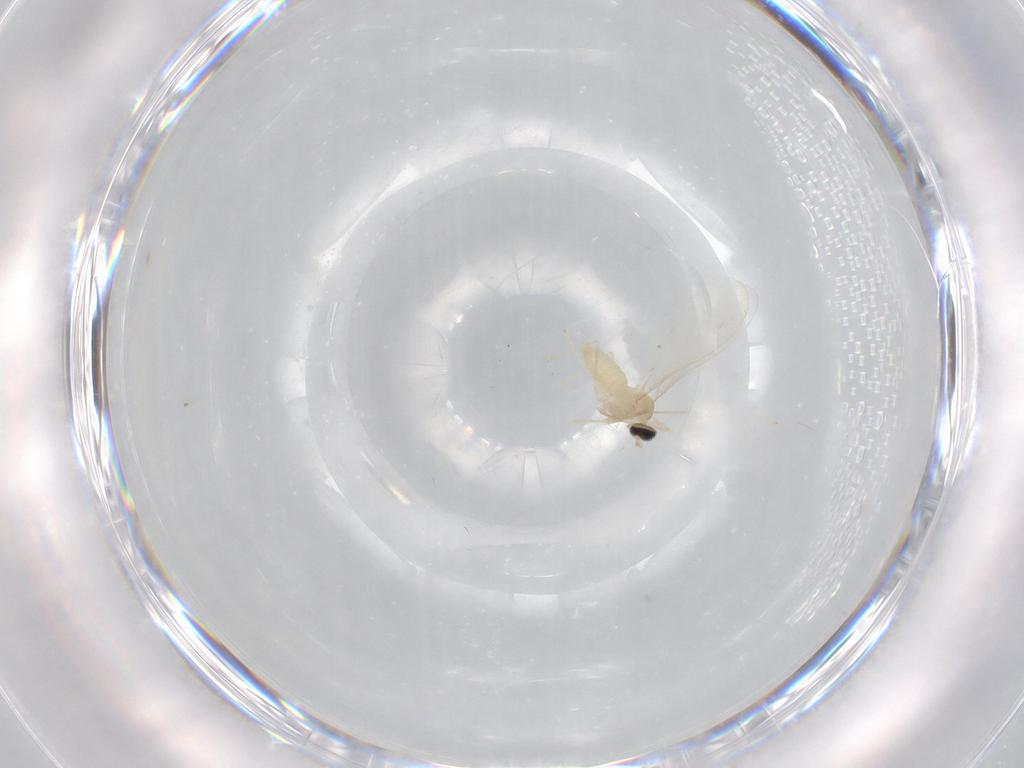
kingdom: Animalia
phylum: Arthropoda
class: Insecta
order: Diptera
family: Cecidomyiidae
